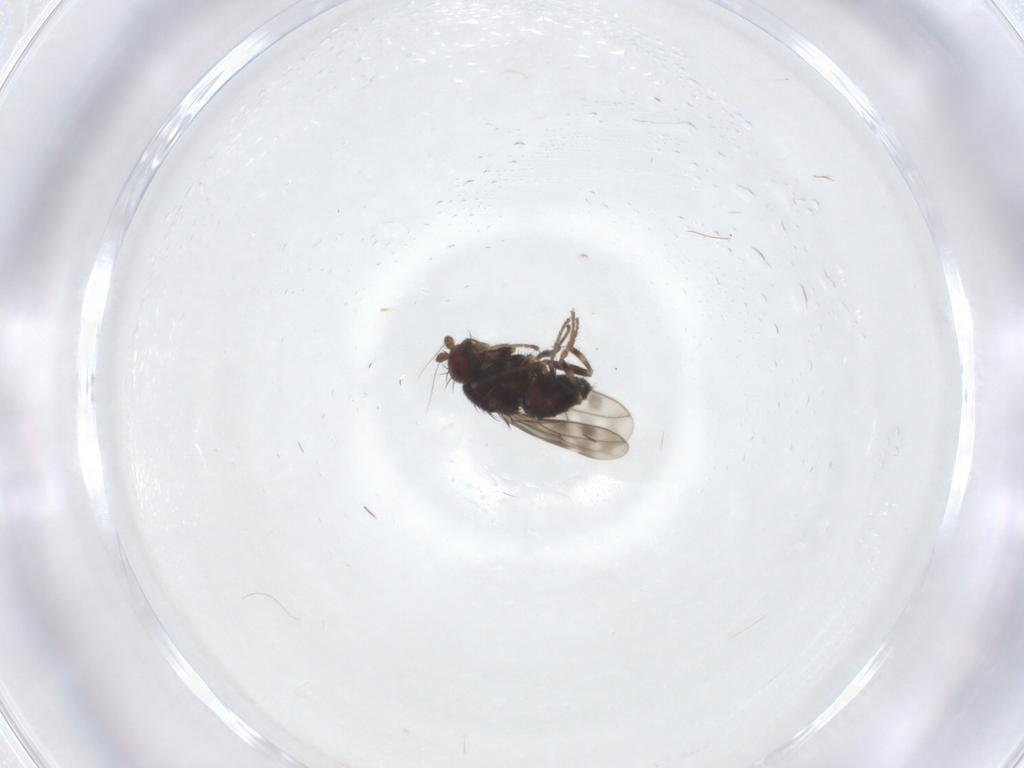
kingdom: Animalia
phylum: Arthropoda
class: Insecta
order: Diptera
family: Sphaeroceridae
